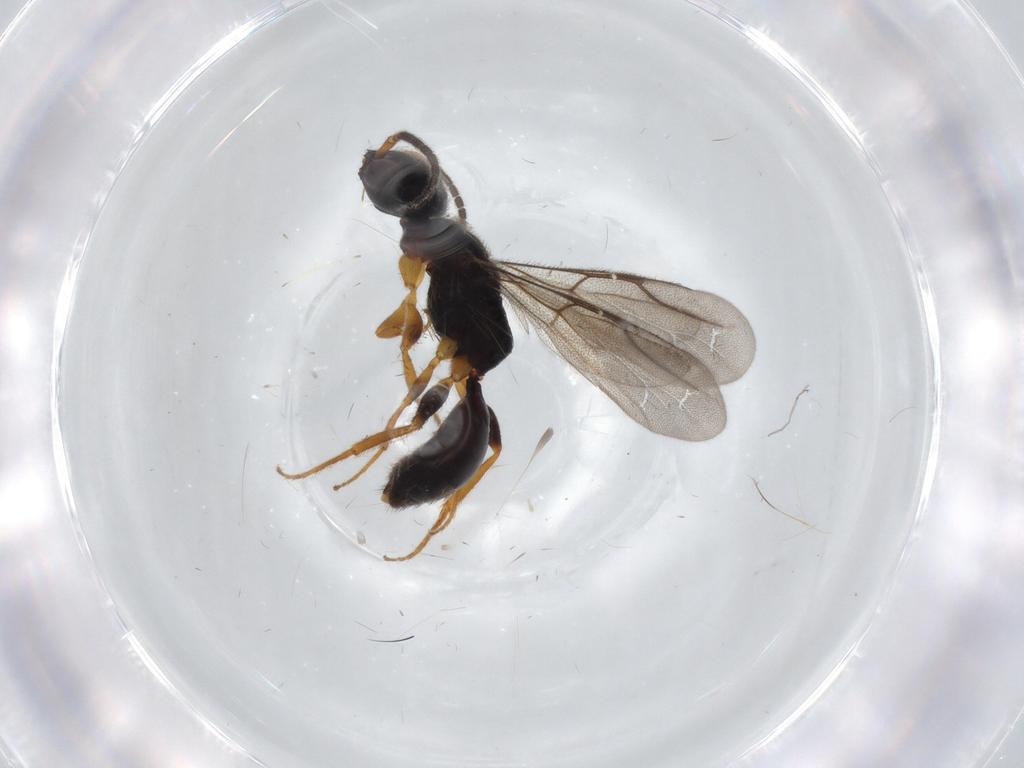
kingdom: Animalia
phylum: Arthropoda
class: Insecta
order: Hymenoptera
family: Bethylidae
